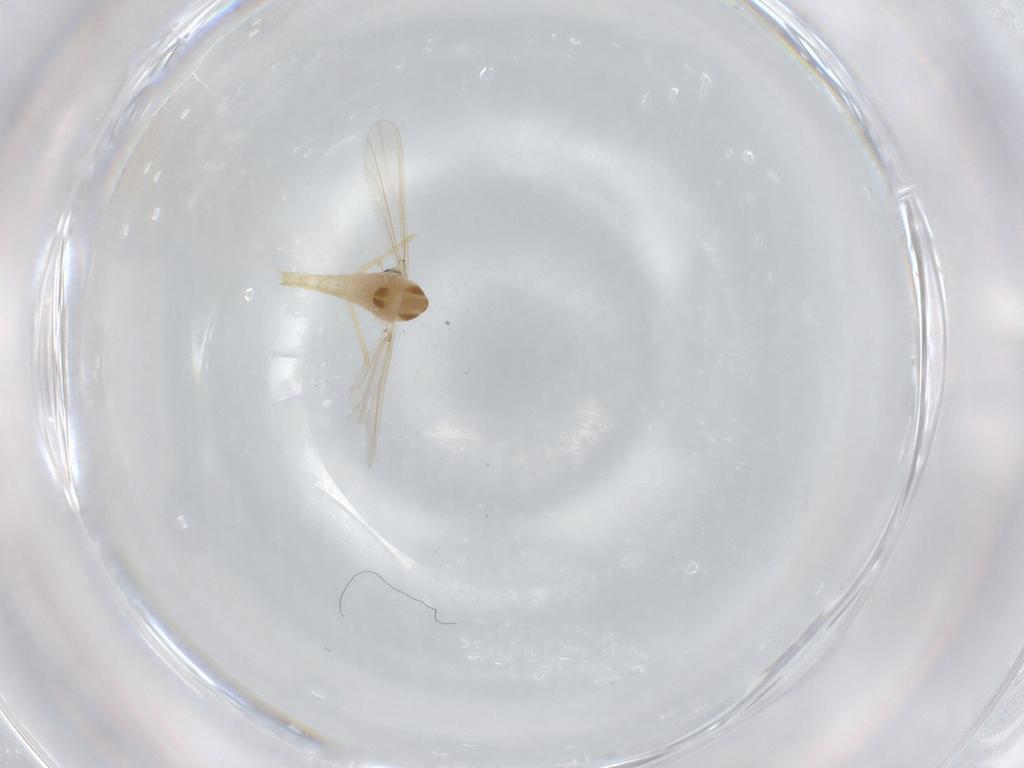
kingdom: Animalia
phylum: Arthropoda
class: Insecta
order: Diptera
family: Chironomidae
